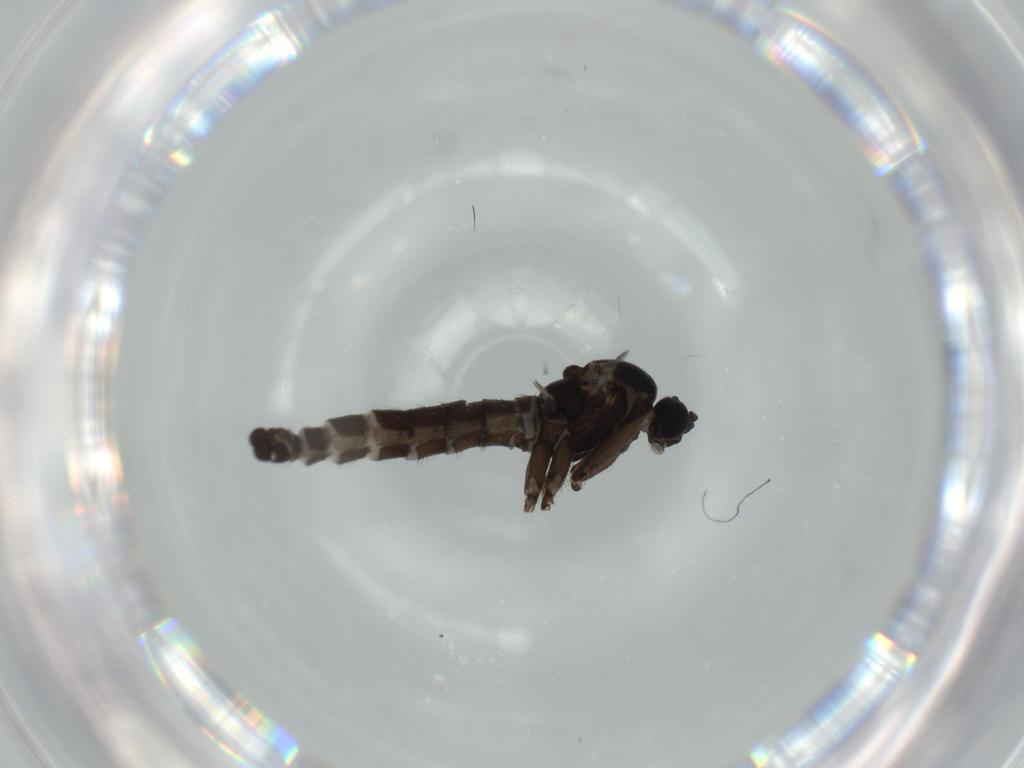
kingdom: Animalia
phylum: Arthropoda
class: Insecta
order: Diptera
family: Sciaridae
